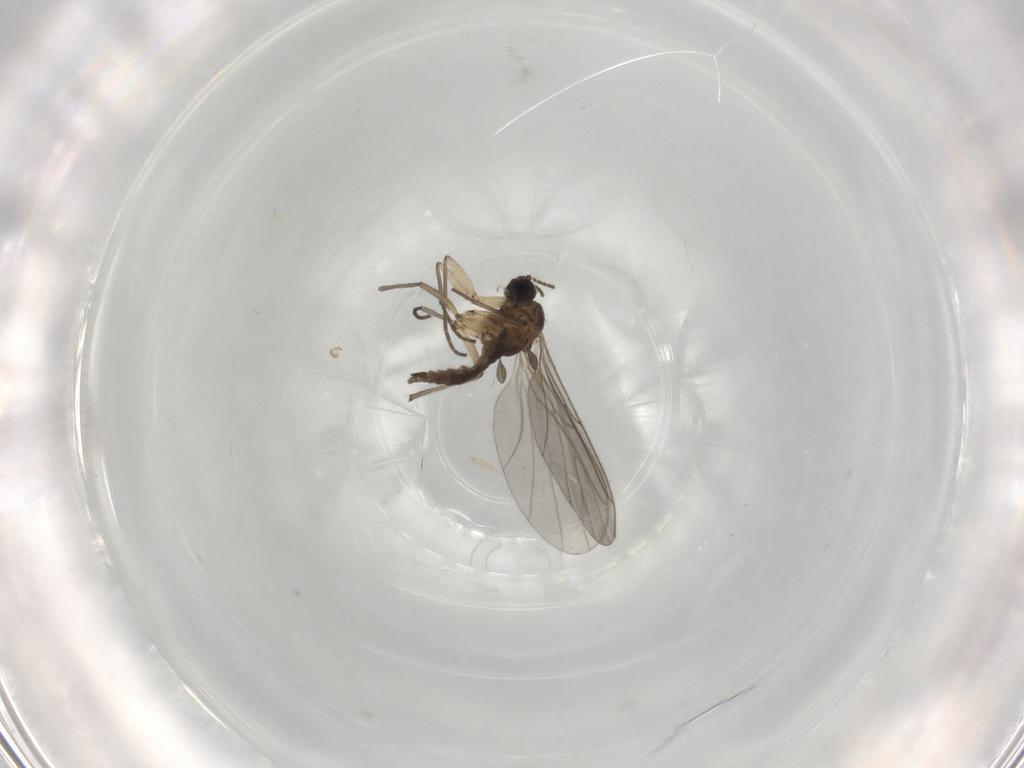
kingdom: Animalia
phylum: Arthropoda
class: Insecta
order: Diptera
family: Sciaridae
